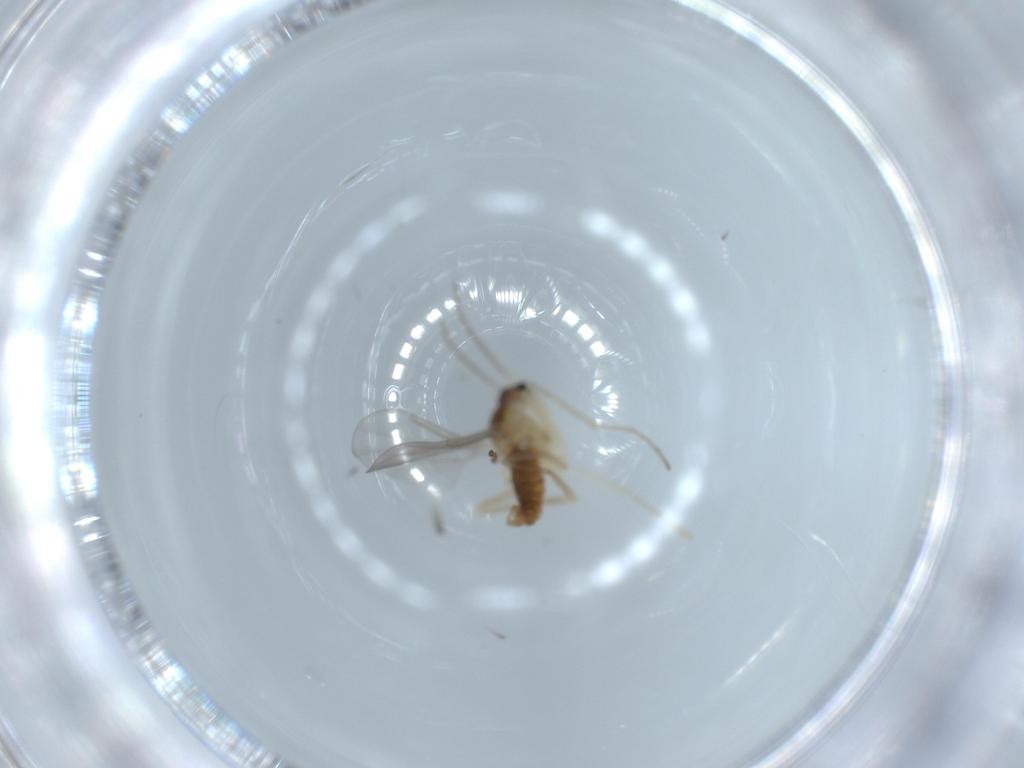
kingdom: Animalia
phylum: Arthropoda
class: Insecta
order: Diptera
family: Cecidomyiidae
